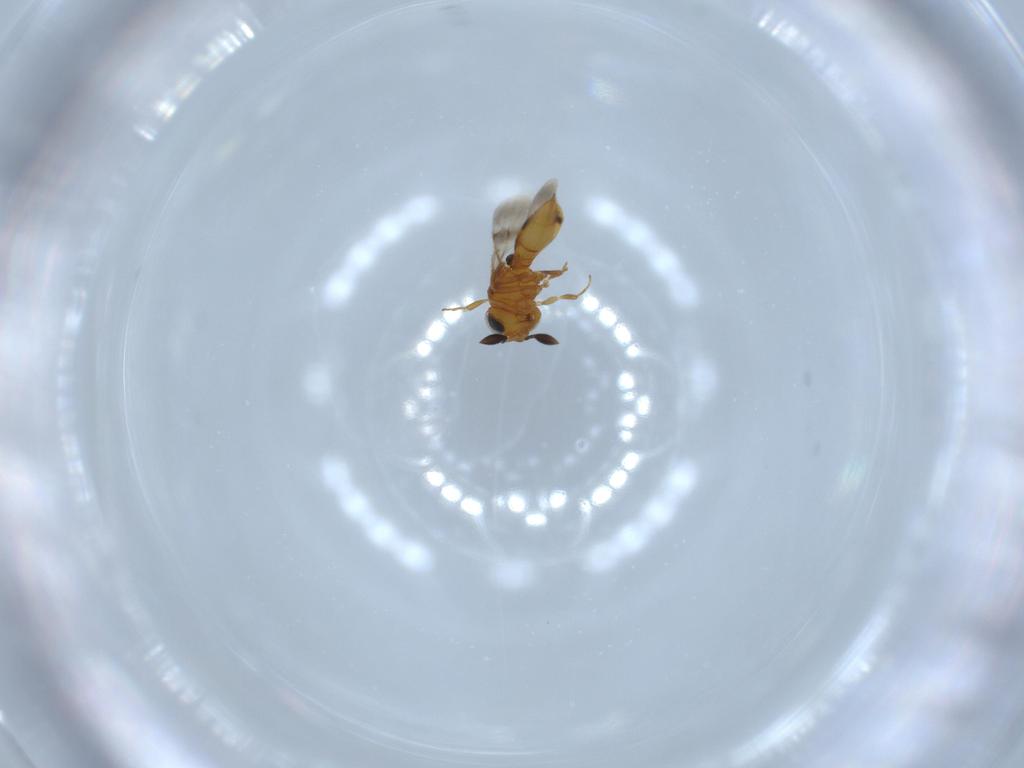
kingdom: Animalia
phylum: Arthropoda
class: Insecta
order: Hymenoptera
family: Scelionidae
